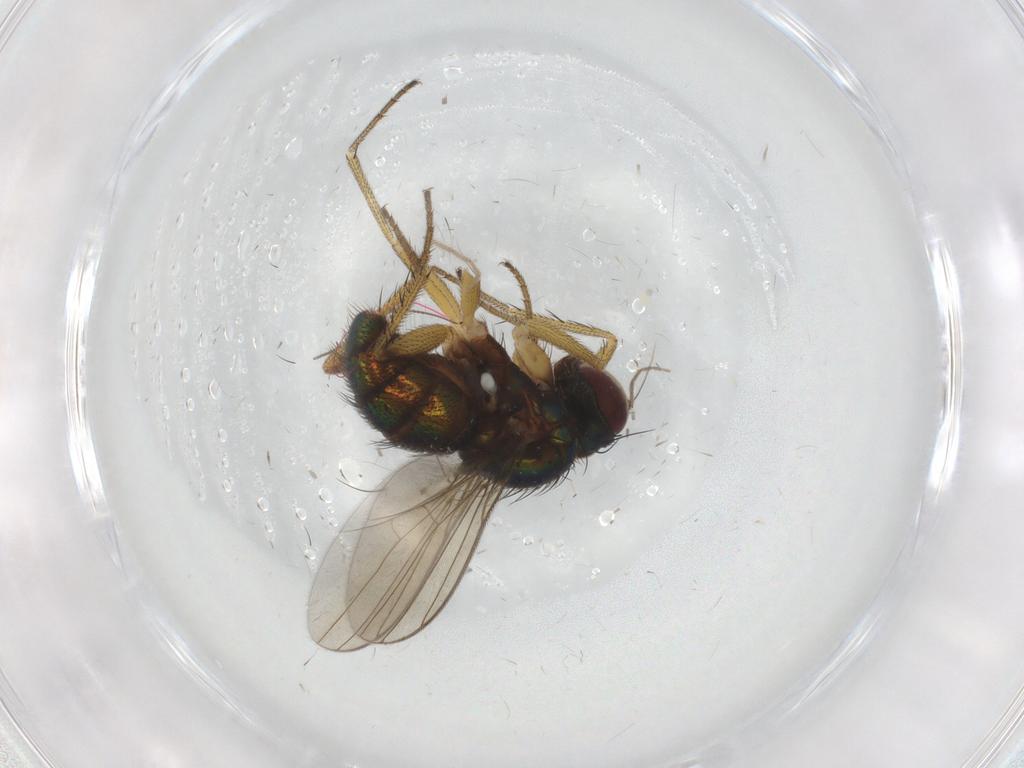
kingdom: Animalia
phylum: Arthropoda
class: Insecta
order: Diptera
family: Dolichopodidae
